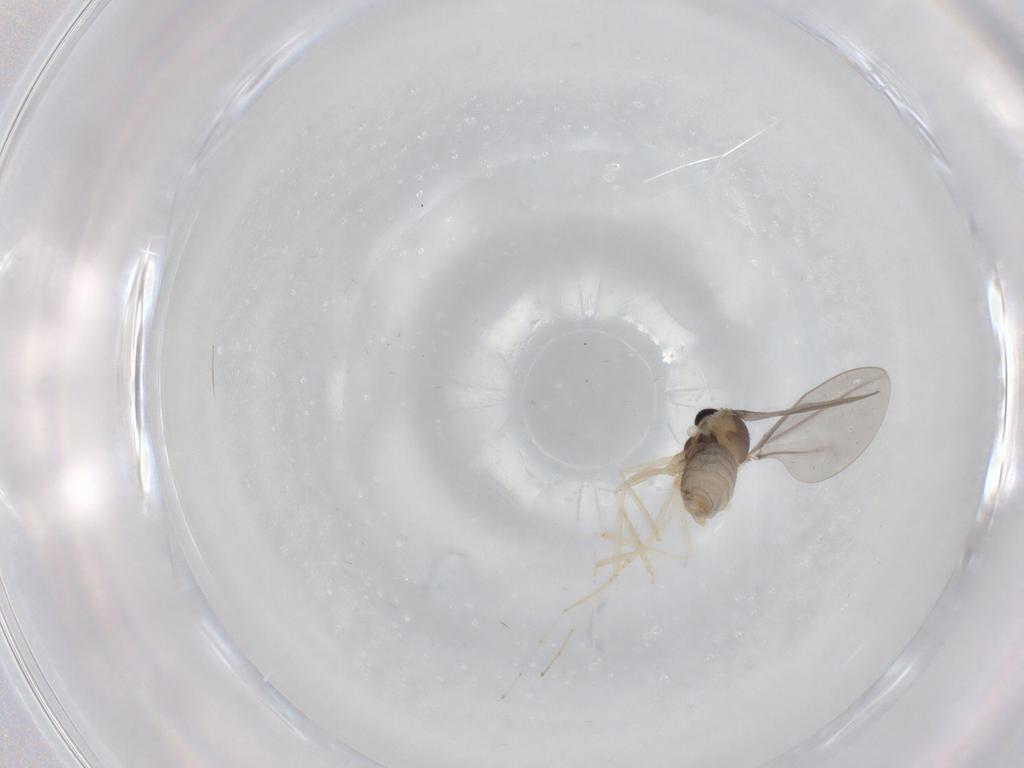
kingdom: Animalia
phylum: Arthropoda
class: Insecta
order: Diptera
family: Cecidomyiidae
